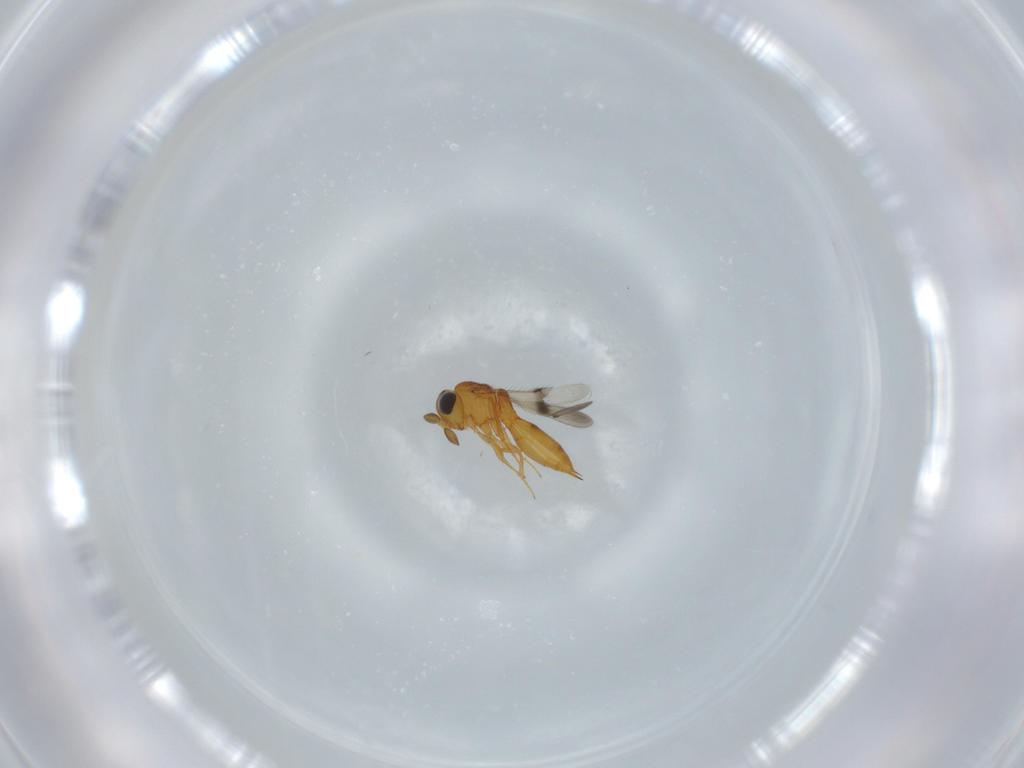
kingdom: Animalia
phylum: Arthropoda
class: Insecta
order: Hymenoptera
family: Scelionidae
